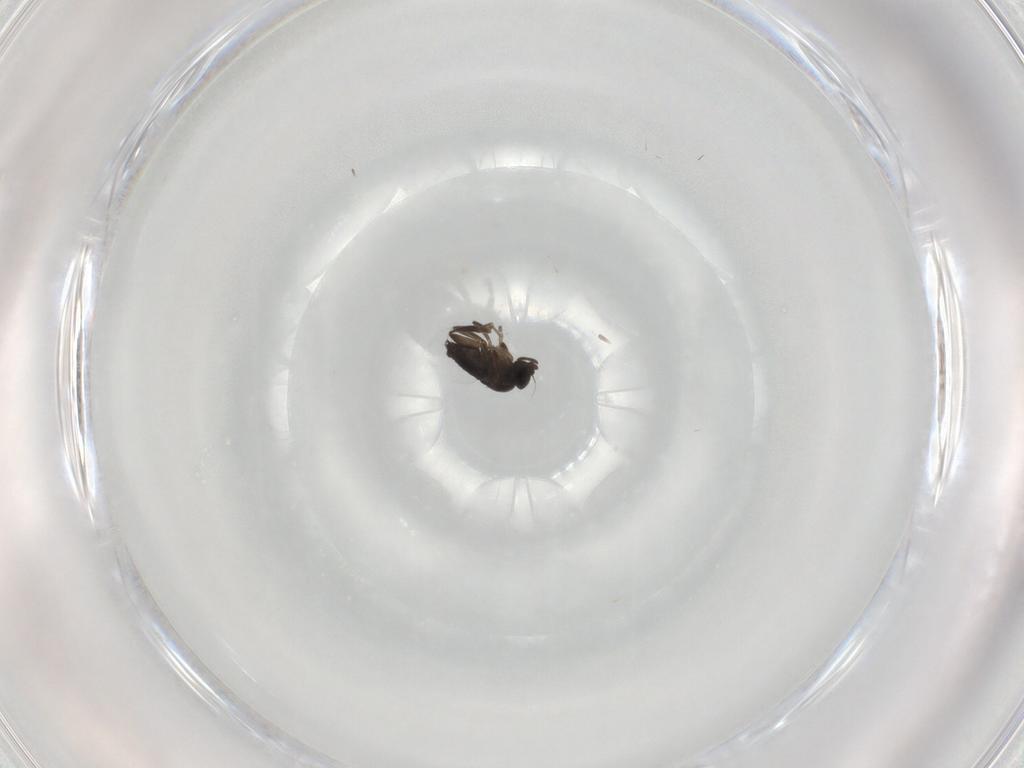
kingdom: Animalia
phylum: Arthropoda
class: Insecta
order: Diptera
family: Phoridae
